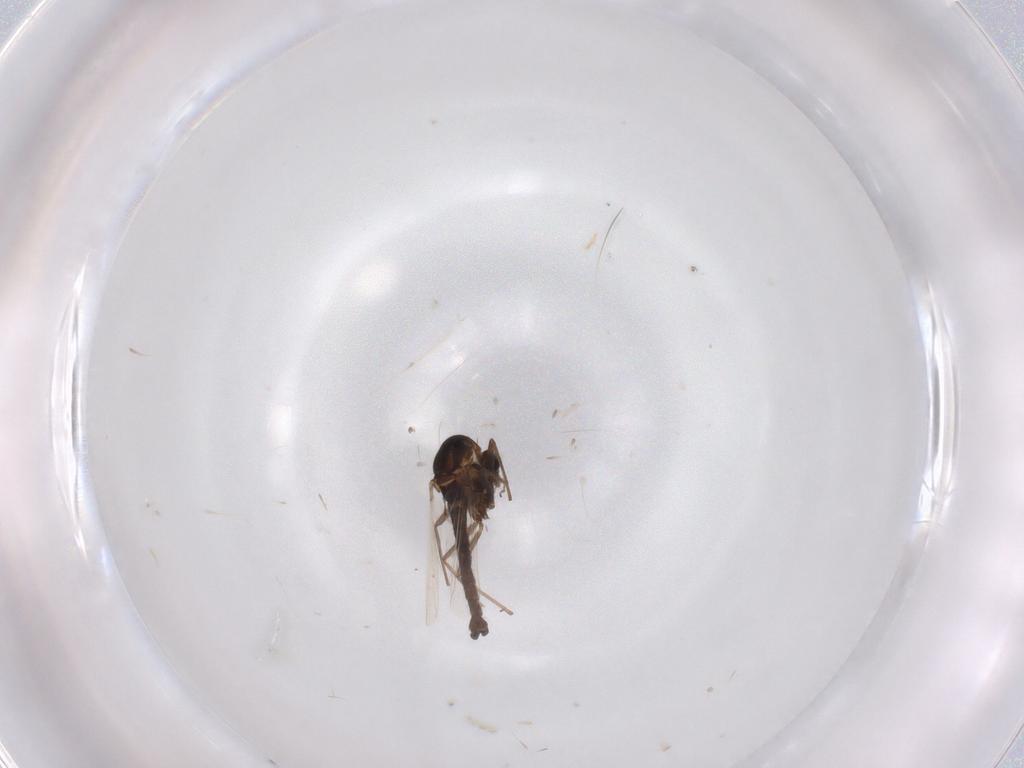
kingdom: Animalia
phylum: Arthropoda
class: Insecta
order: Diptera
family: Chironomidae
